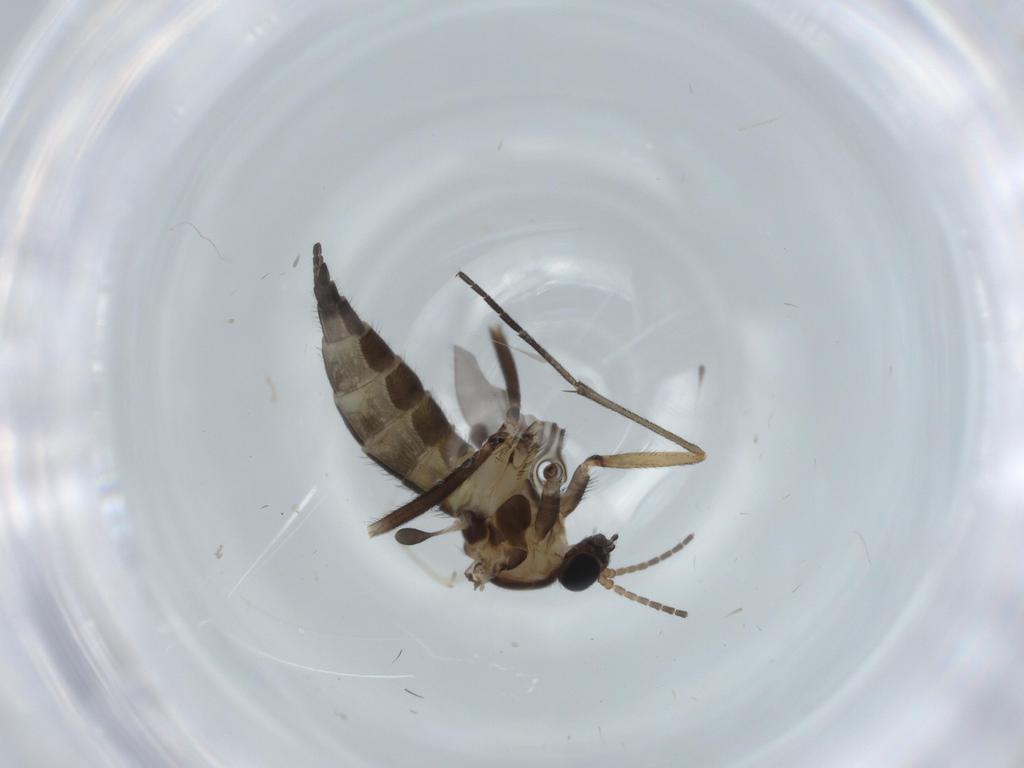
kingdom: Animalia
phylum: Arthropoda
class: Insecta
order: Diptera
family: Sciaridae
